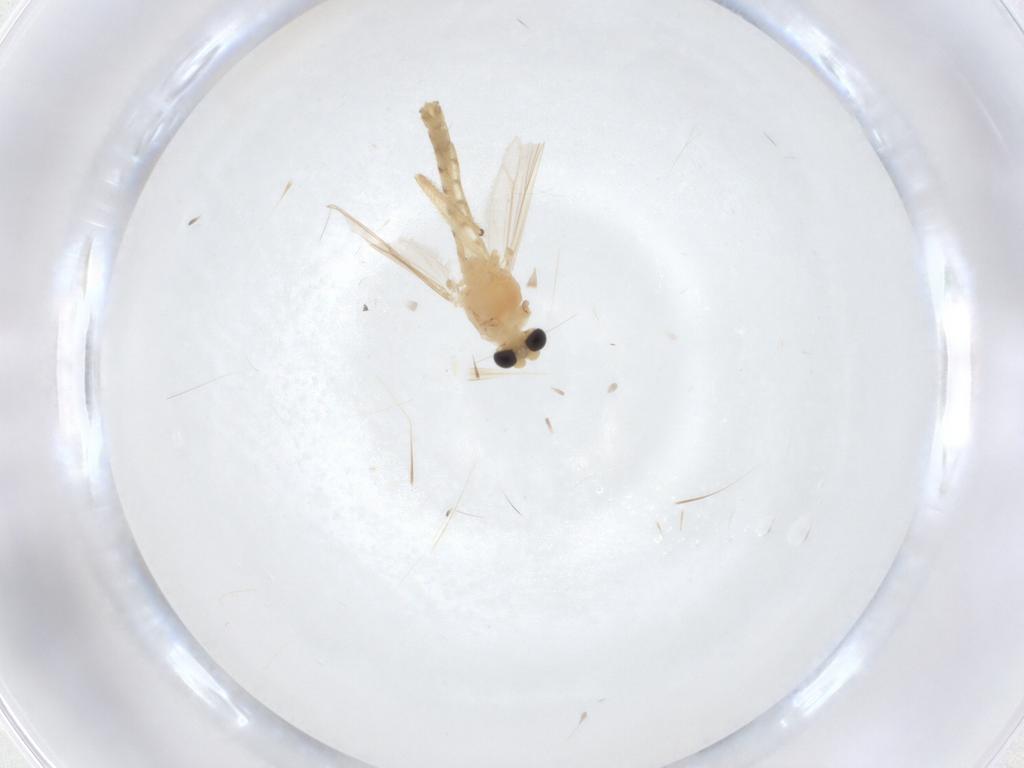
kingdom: Animalia
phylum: Arthropoda
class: Insecta
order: Diptera
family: Chironomidae
